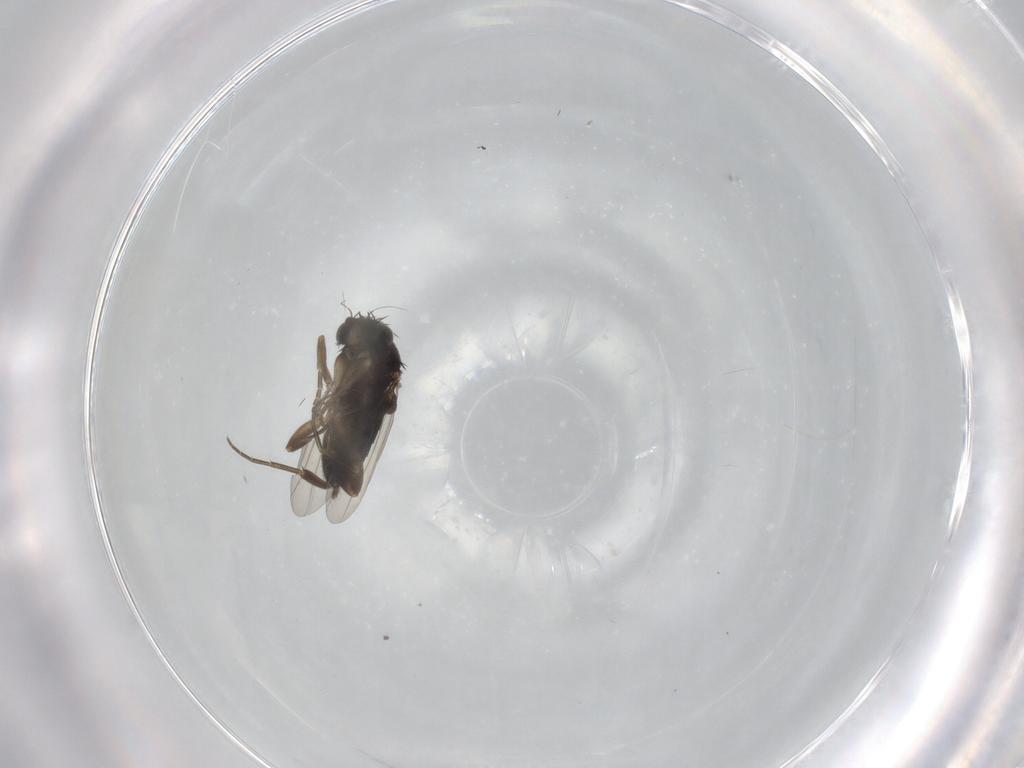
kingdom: Animalia
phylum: Arthropoda
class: Insecta
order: Diptera
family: Phoridae
